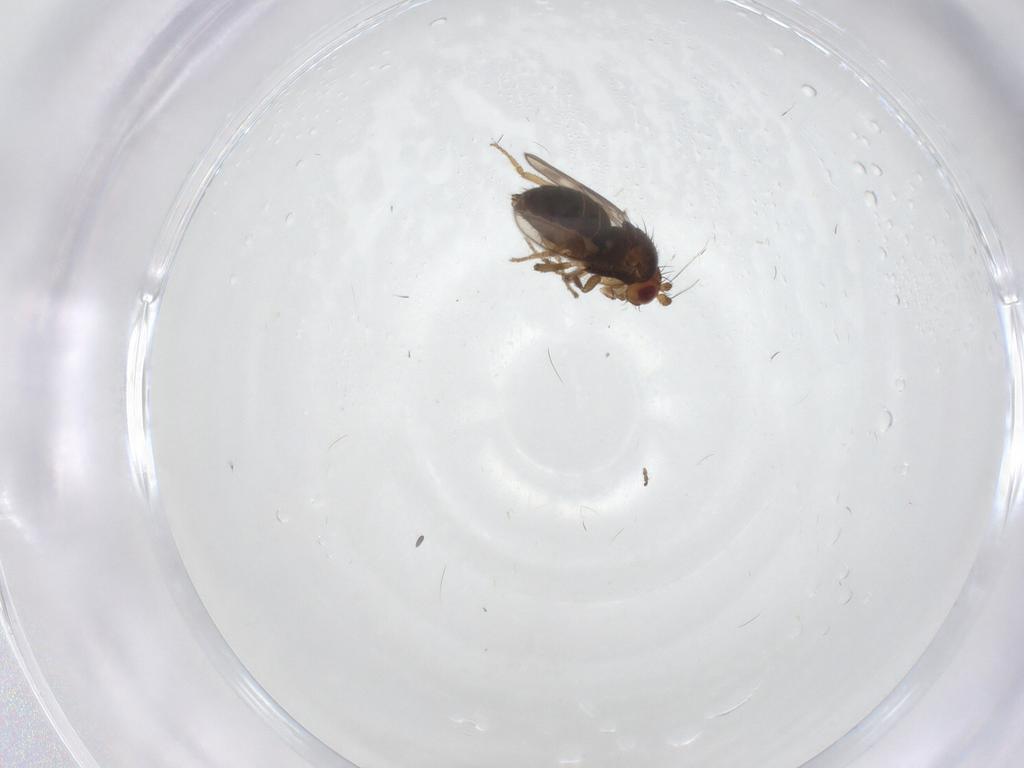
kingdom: Animalia
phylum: Arthropoda
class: Insecta
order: Diptera
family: Sphaeroceridae
